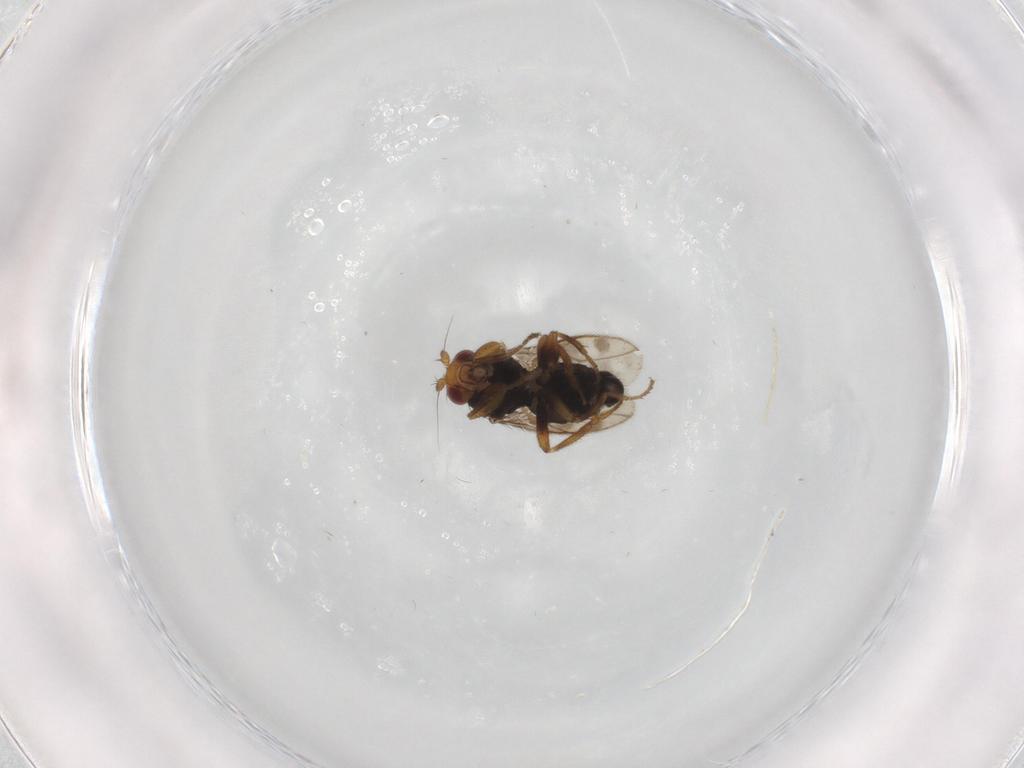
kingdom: Animalia
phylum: Arthropoda
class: Insecta
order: Diptera
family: Sphaeroceridae
